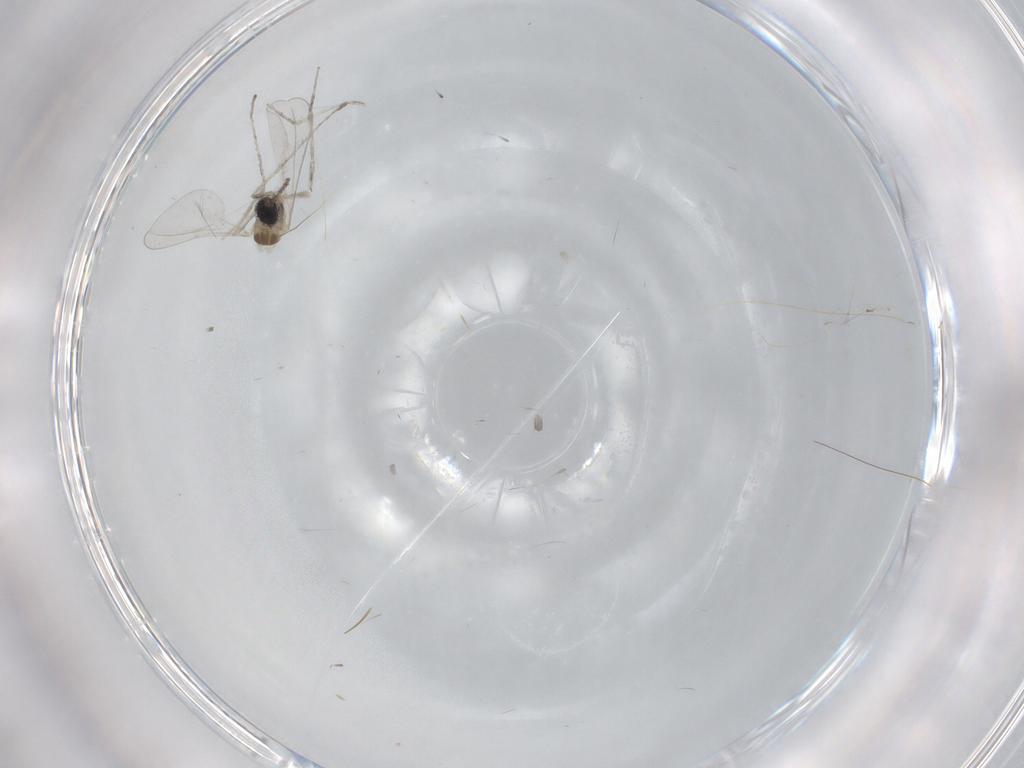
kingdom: Animalia
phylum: Arthropoda
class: Insecta
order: Diptera
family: Cecidomyiidae
